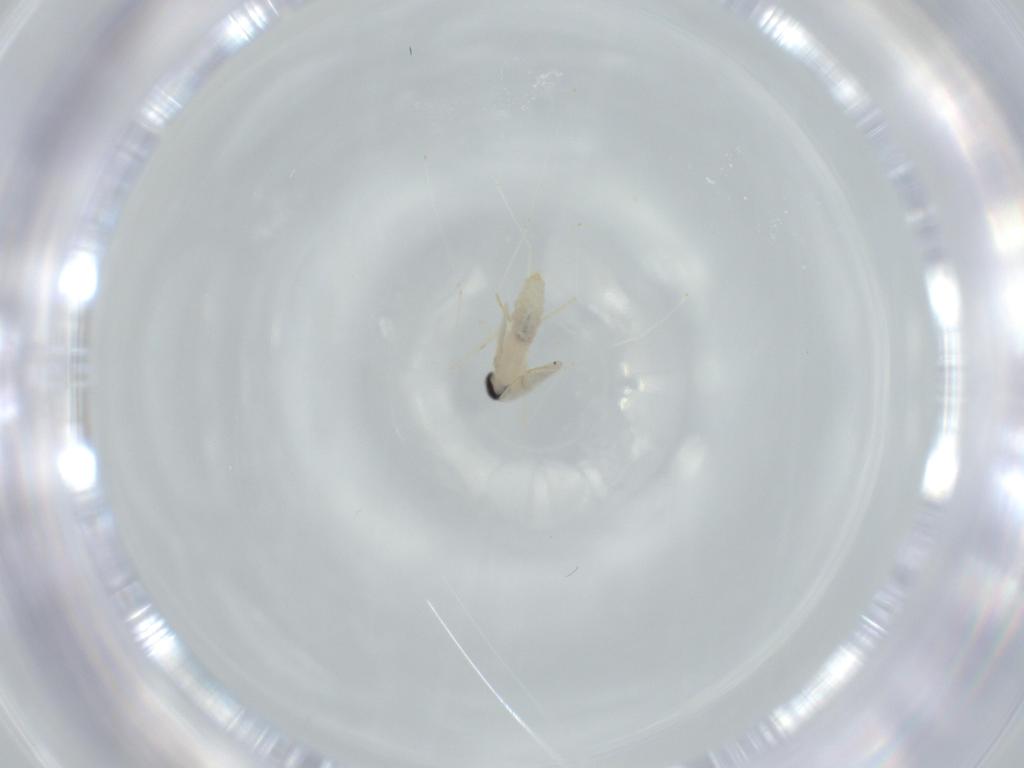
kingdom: Animalia
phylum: Arthropoda
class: Insecta
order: Diptera
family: Cecidomyiidae
